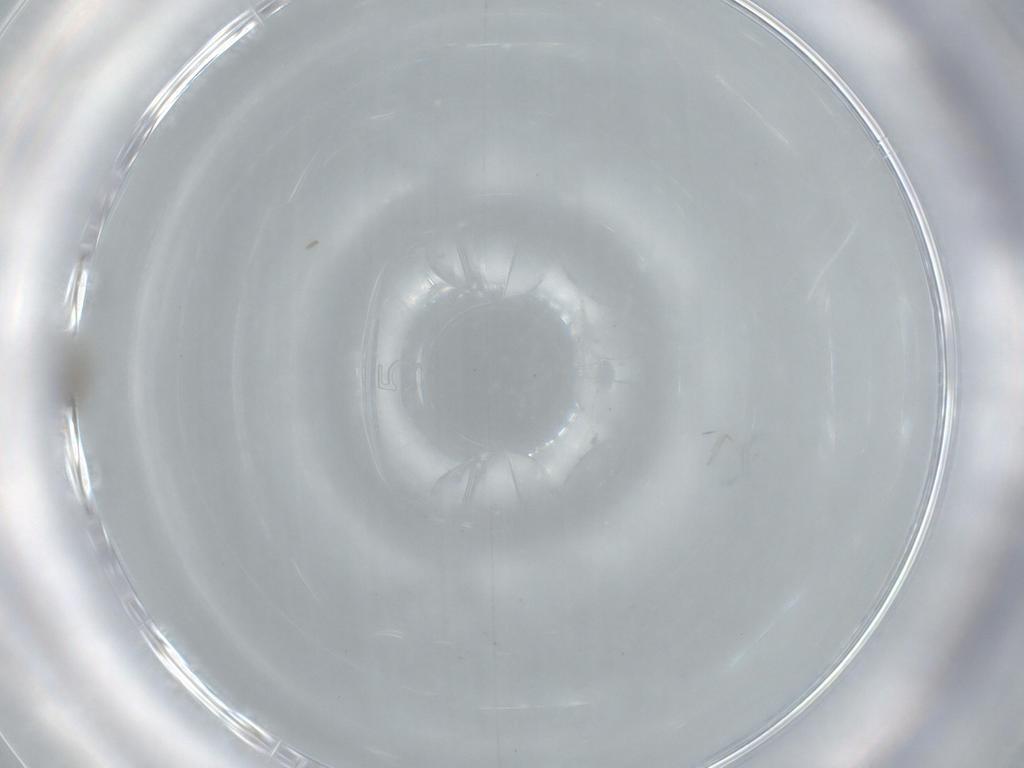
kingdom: Animalia
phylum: Arthropoda
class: Insecta
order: Diptera
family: Cecidomyiidae
